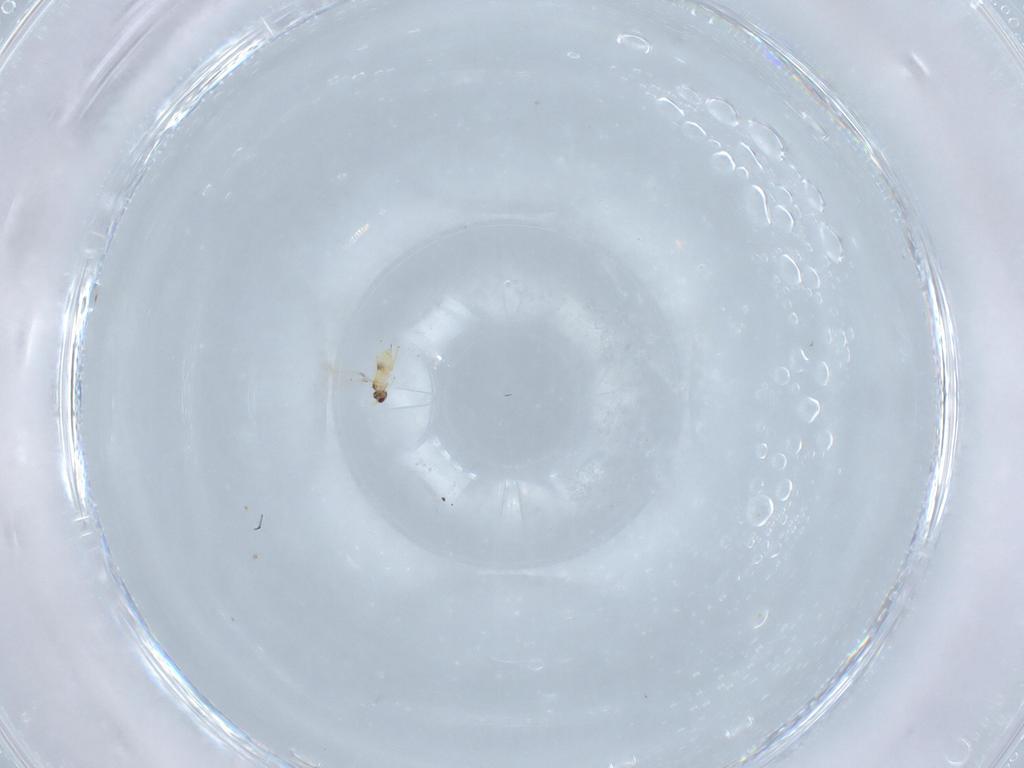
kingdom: Animalia
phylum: Arthropoda
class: Insecta
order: Hymenoptera
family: Mymaridae
